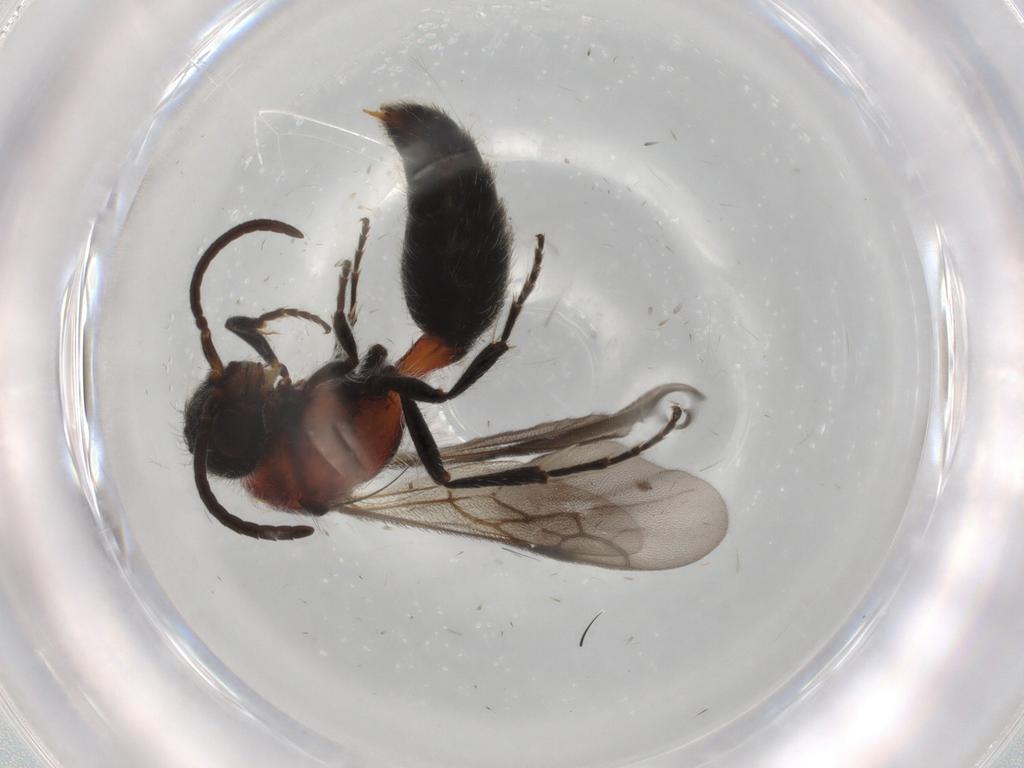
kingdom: Animalia
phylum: Arthropoda
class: Insecta
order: Hymenoptera
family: Mutillidae
